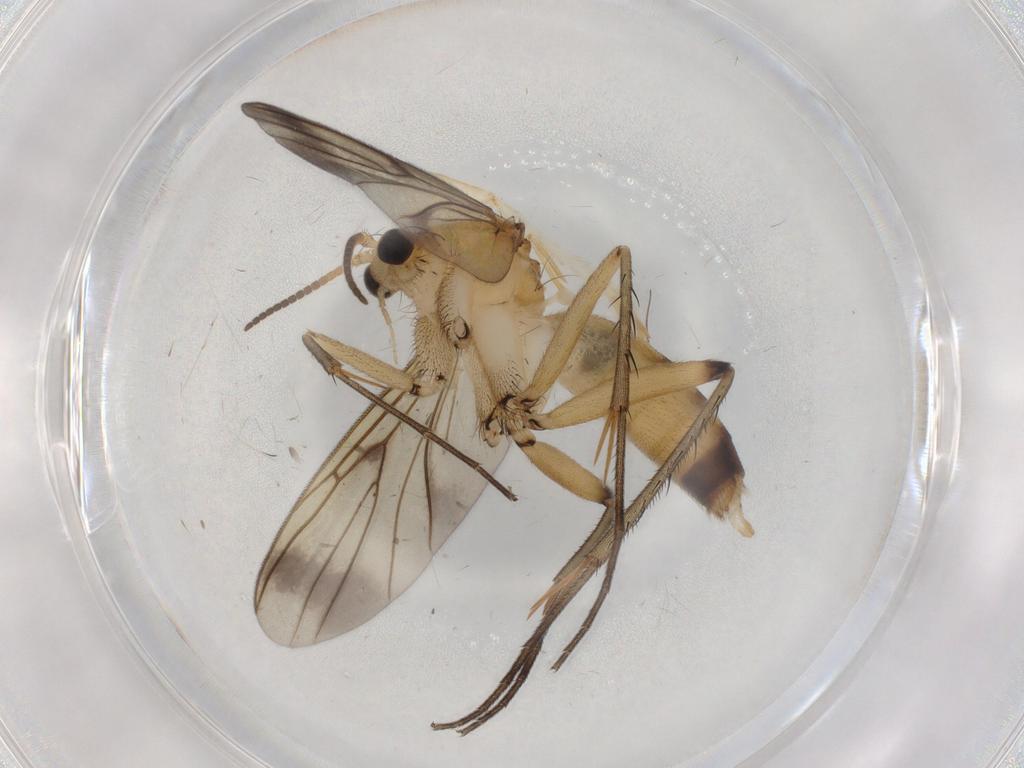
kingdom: Animalia
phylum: Arthropoda
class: Insecta
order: Diptera
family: Mycetophilidae
